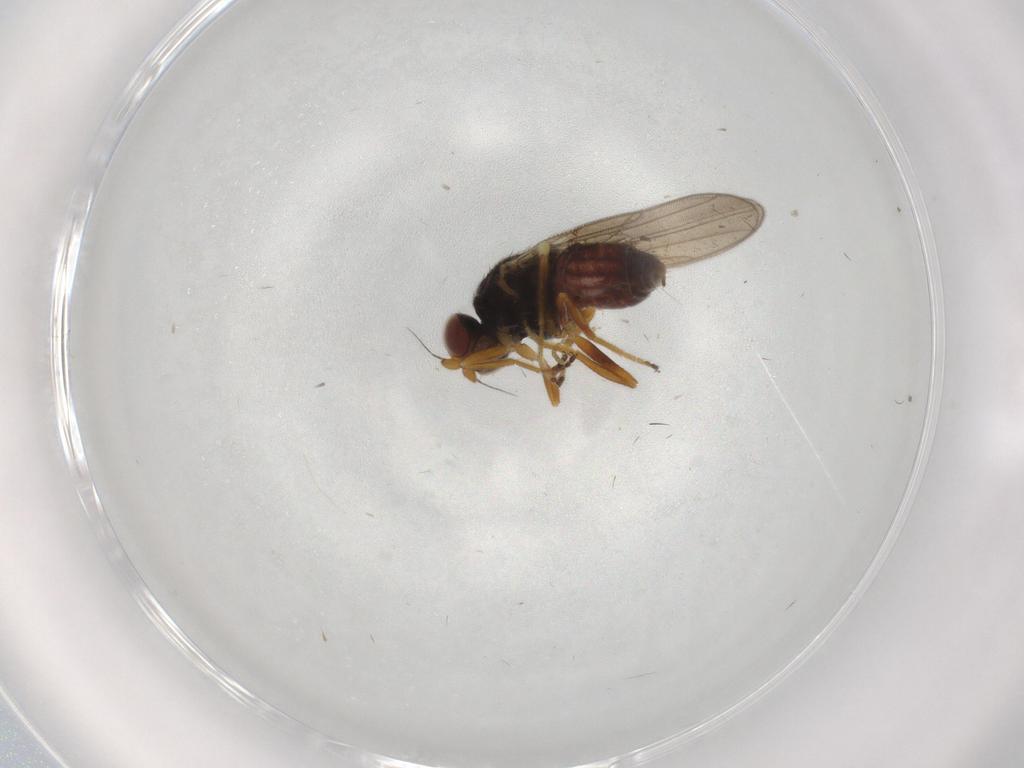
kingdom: Animalia
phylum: Arthropoda
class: Insecta
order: Diptera
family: Chloropidae
